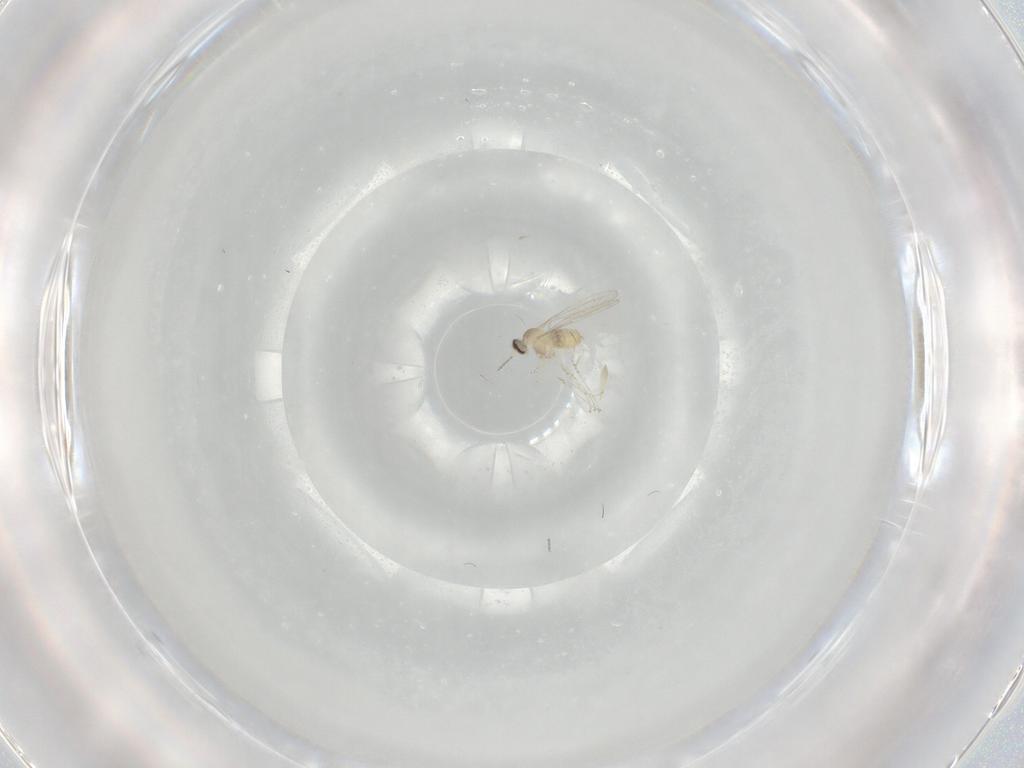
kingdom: Animalia
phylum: Arthropoda
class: Insecta
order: Diptera
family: Cecidomyiidae
